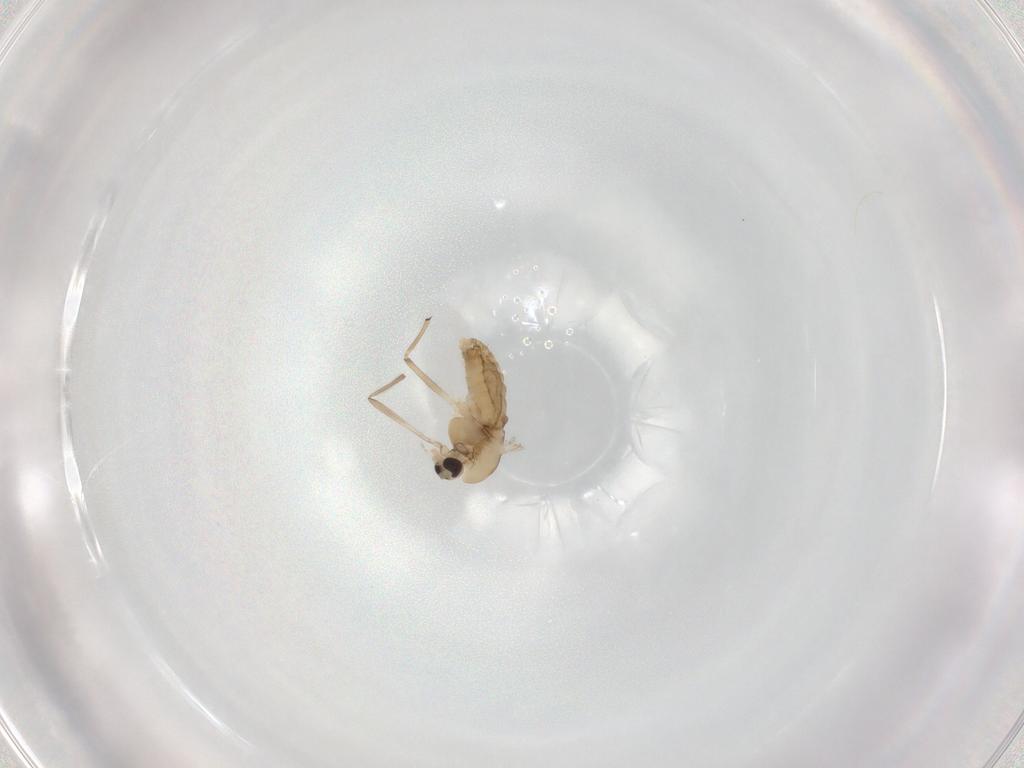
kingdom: Animalia
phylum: Arthropoda
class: Insecta
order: Diptera
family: Chironomidae
